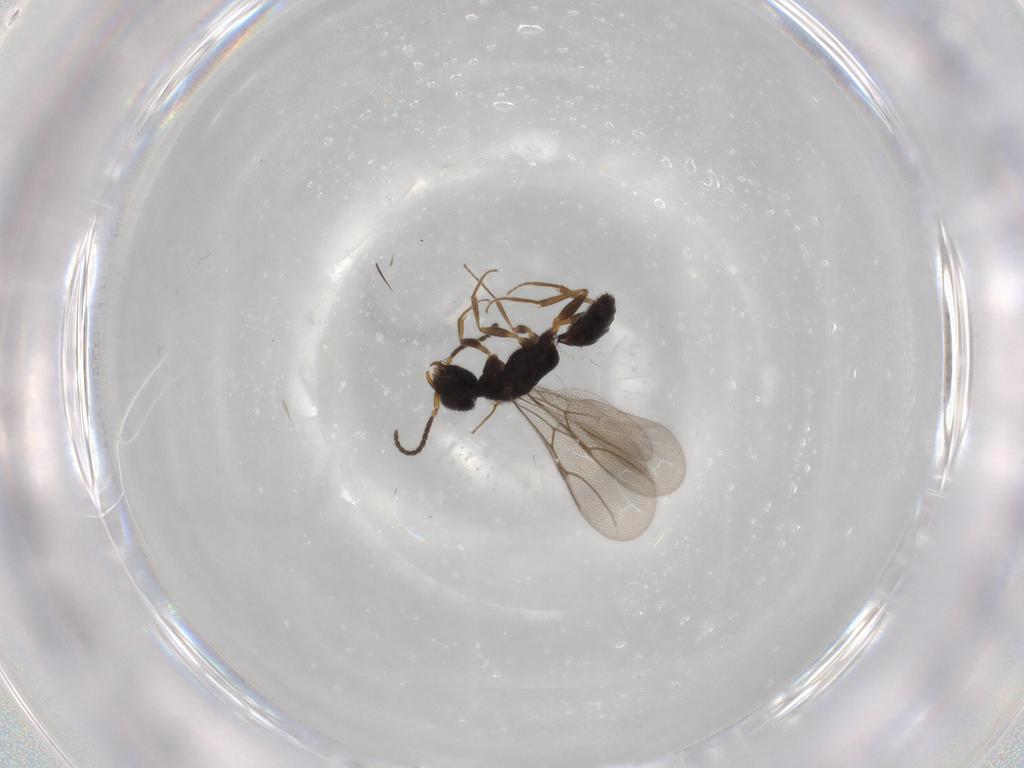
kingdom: Animalia
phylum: Arthropoda
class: Insecta
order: Hymenoptera
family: Bethylidae
